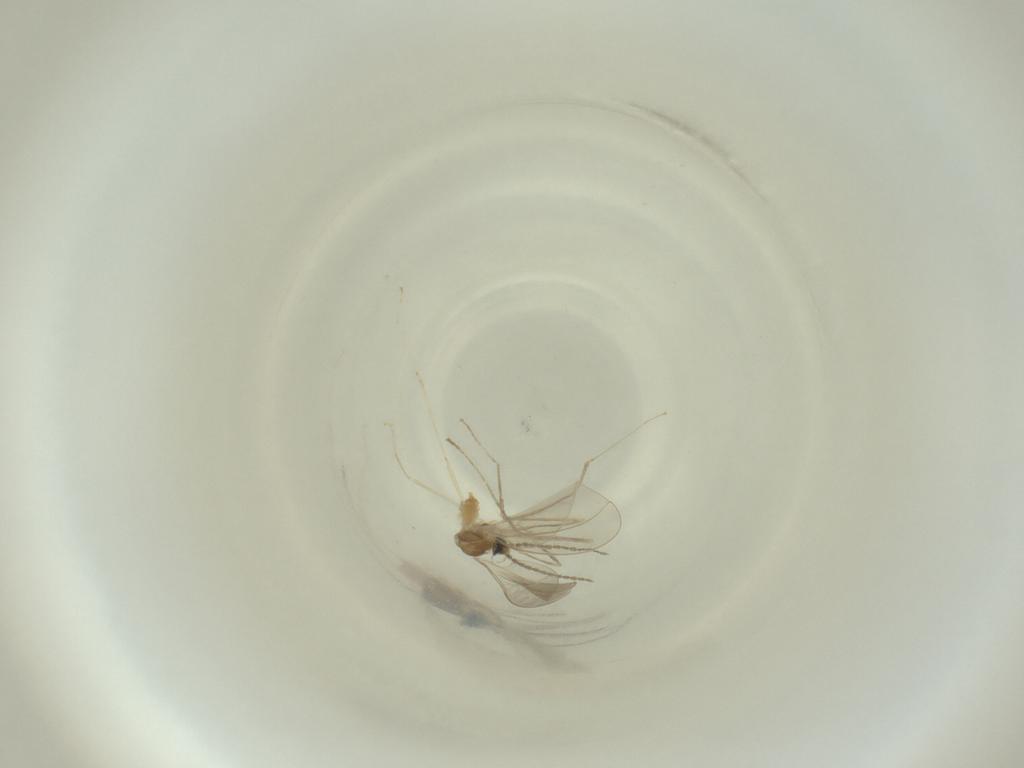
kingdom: Animalia
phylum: Arthropoda
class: Insecta
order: Diptera
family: Cecidomyiidae
